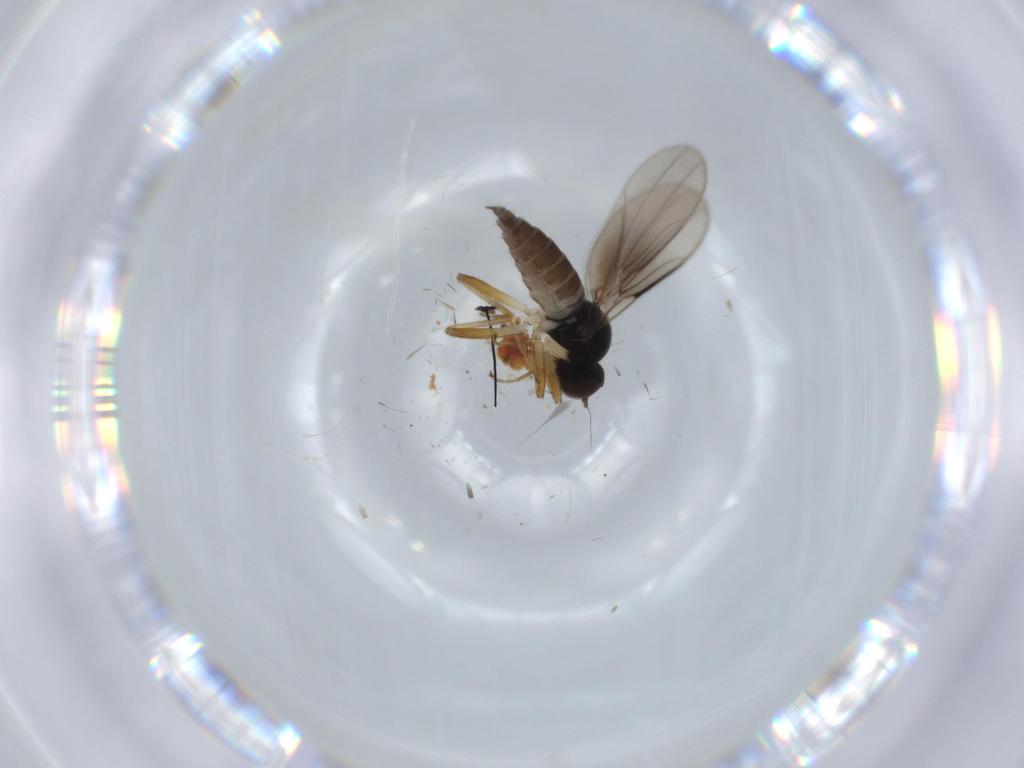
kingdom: Animalia
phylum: Arthropoda
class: Insecta
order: Diptera
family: Hybotidae
